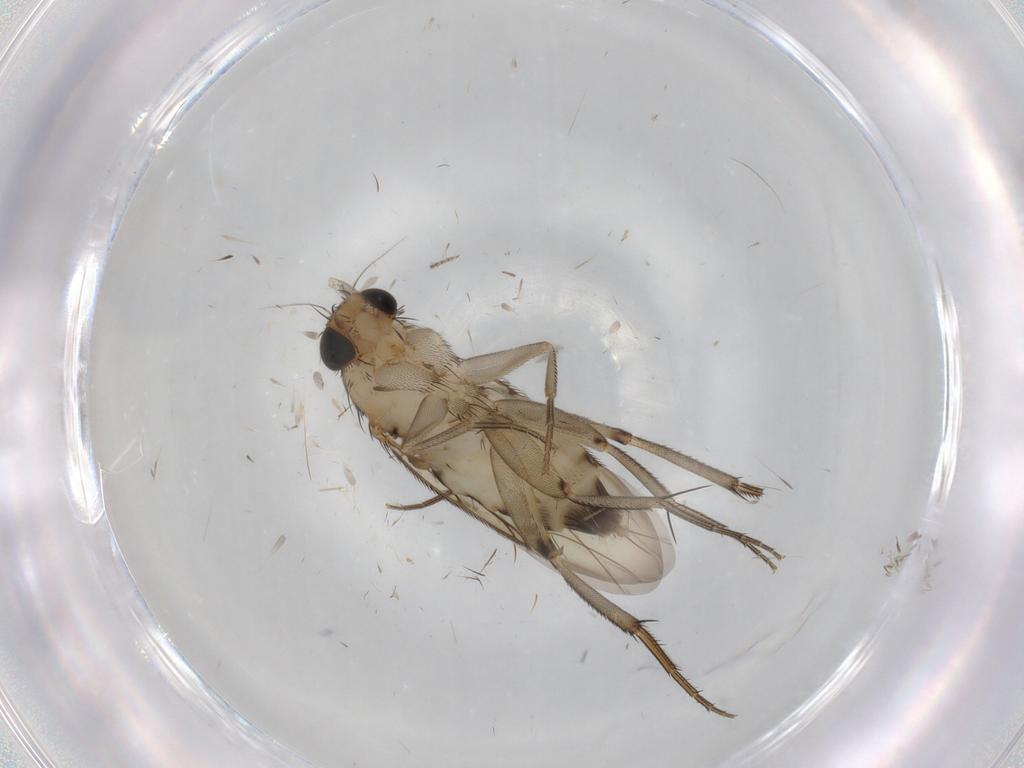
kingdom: Animalia
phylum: Arthropoda
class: Insecta
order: Diptera
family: Phoridae
